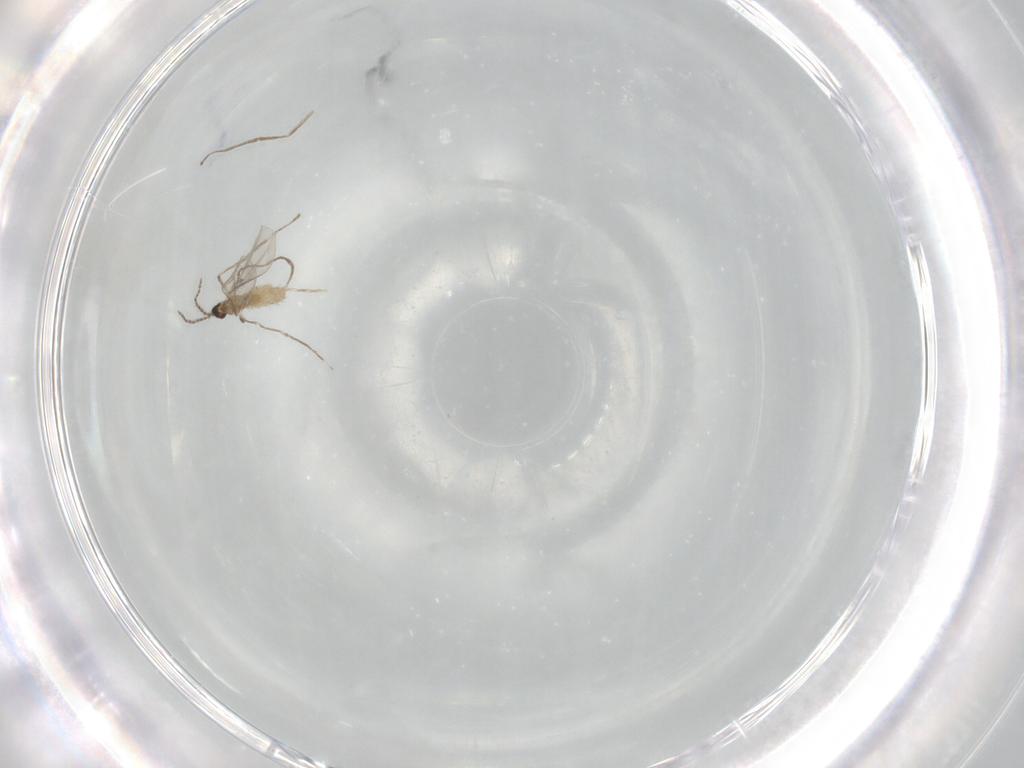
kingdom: Animalia
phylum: Arthropoda
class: Insecta
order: Diptera
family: Cecidomyiidae
